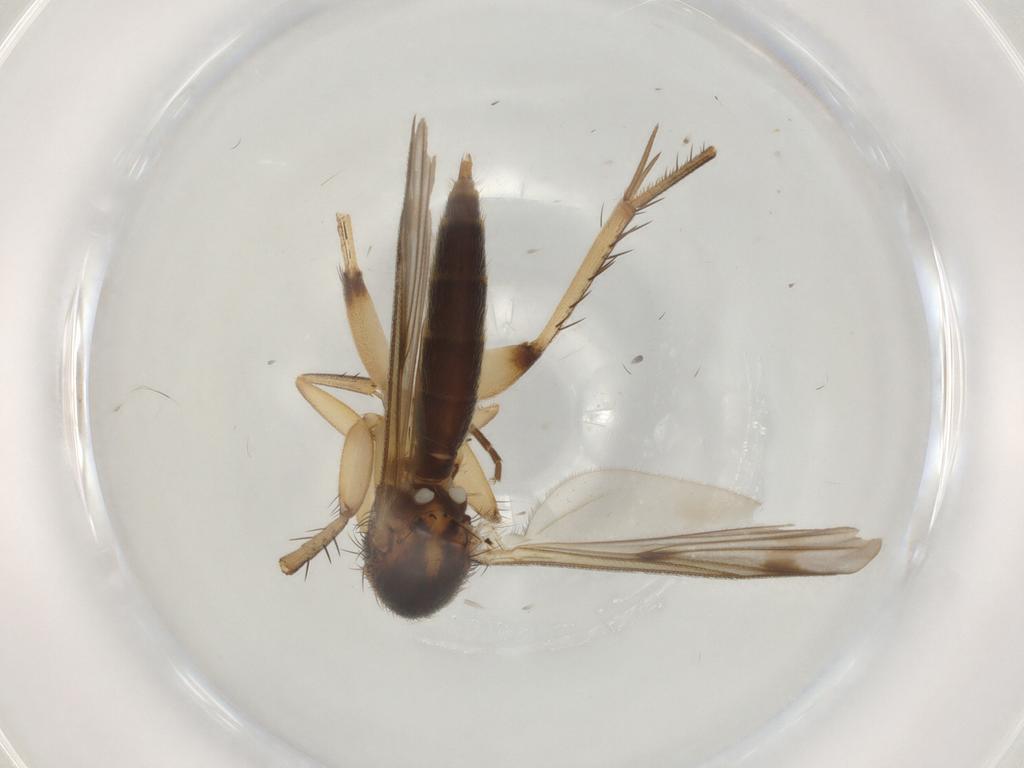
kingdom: Animalia
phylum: Arthropoda
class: Insecta
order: Diptera
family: Mycetophilidae
